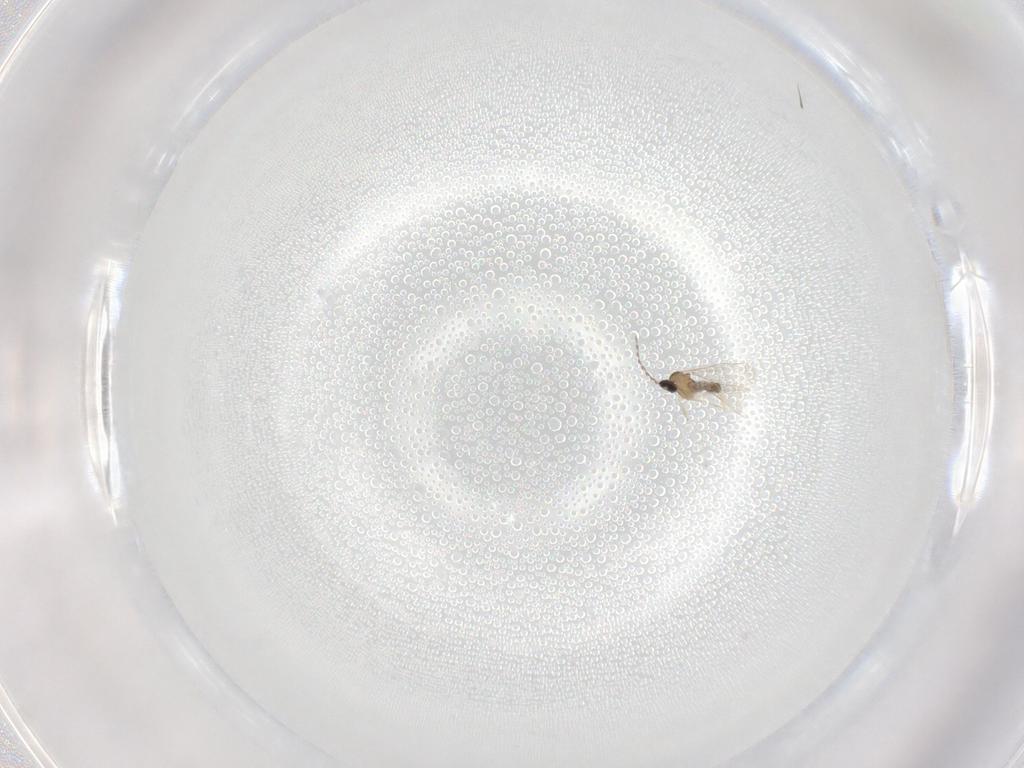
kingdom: Animalia
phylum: Arthropoda
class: Insecta
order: Diptera
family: Cecidomyiidae
